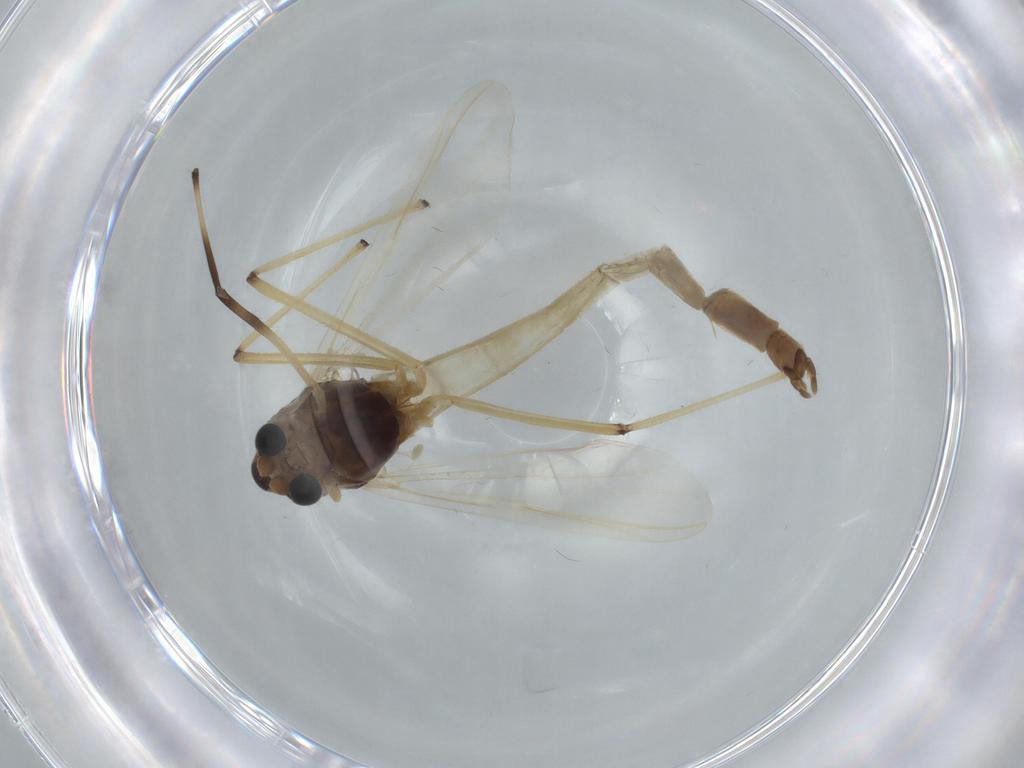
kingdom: Animalia
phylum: Arthropoda
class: Insecta
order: Diptera
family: Chironomidae
